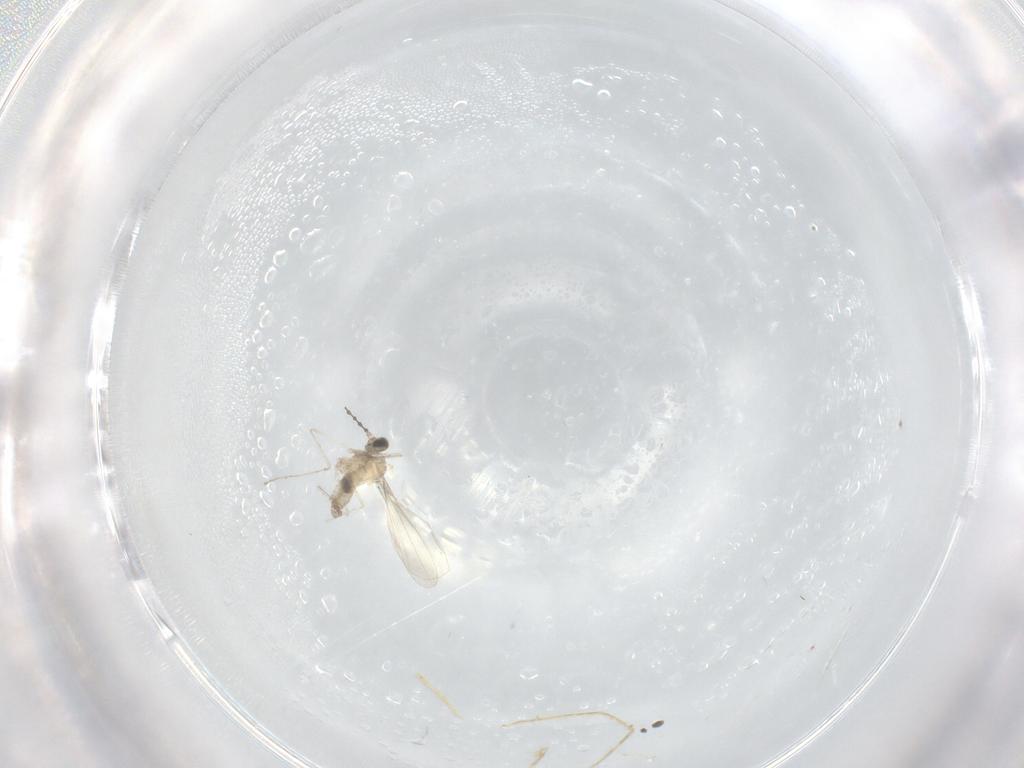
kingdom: Animalia
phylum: Arthropoda
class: Insecta
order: Diptera
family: Cecidomyiidae
